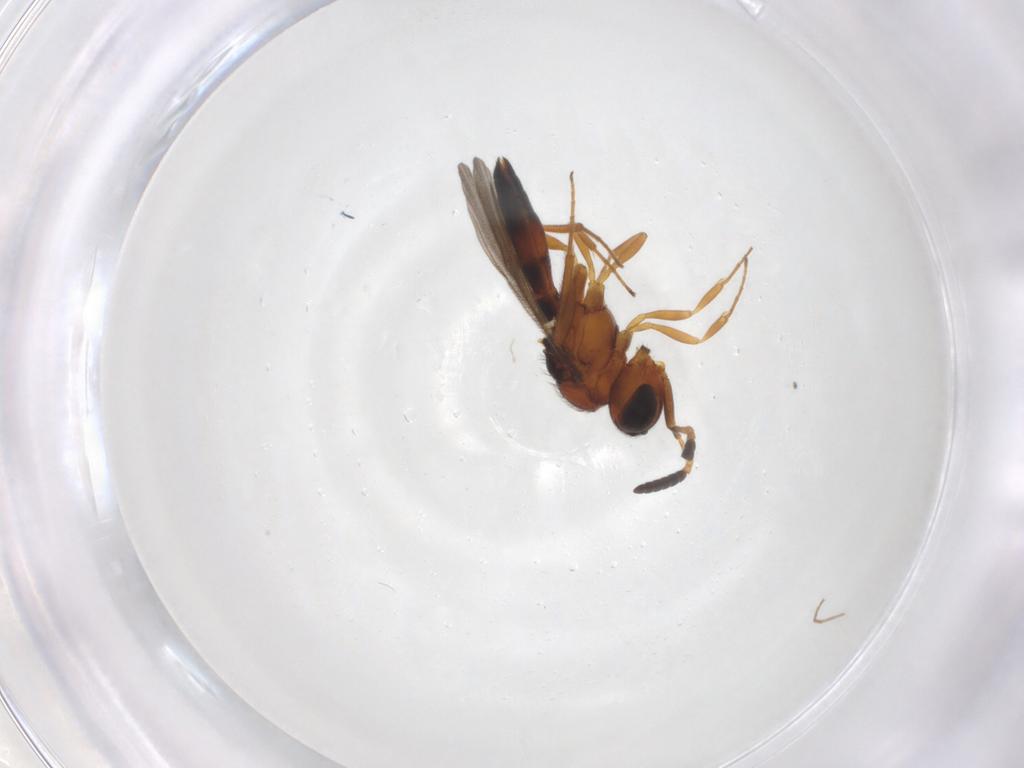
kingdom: Animalia
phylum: Arthropoda
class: Insecta
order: Hymenoptera
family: Scelionidae
